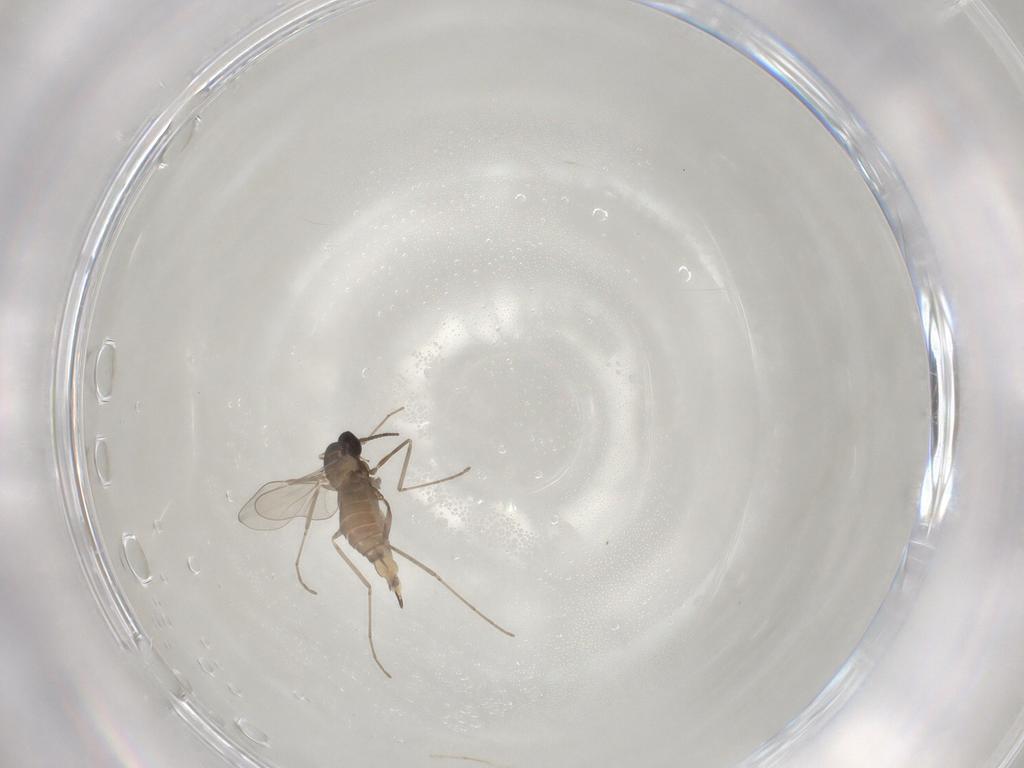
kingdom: Animalia
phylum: Arthropoda
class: Insecta
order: Diptera
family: Cecidomyiidae
